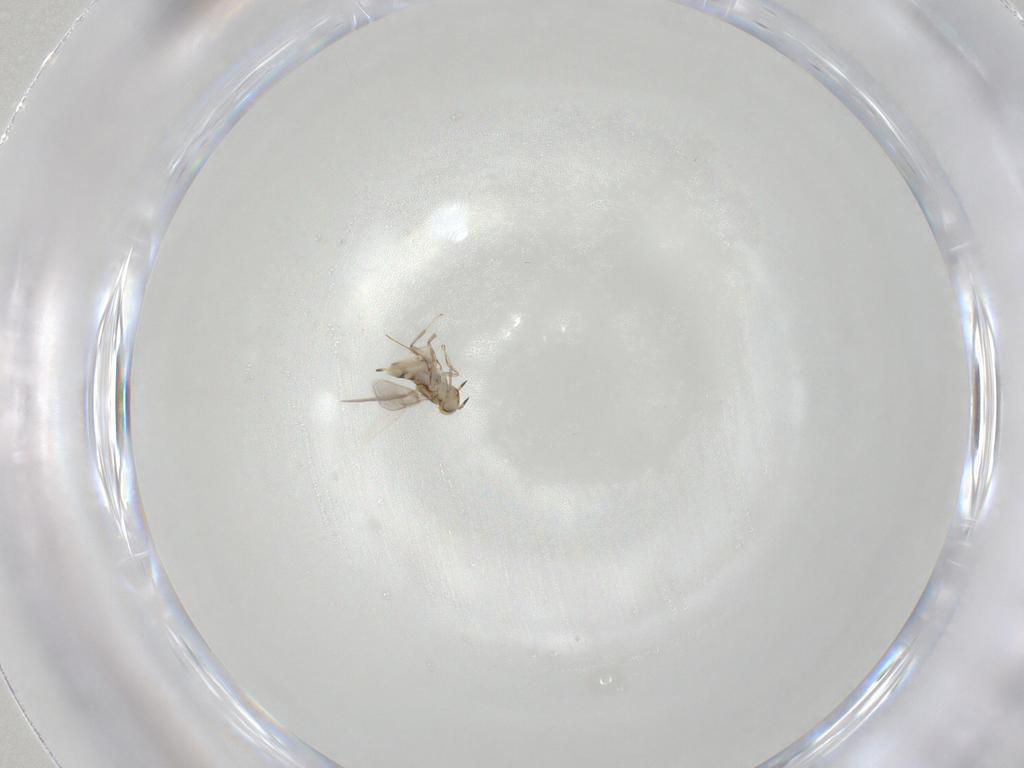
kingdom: Animalia
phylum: Arthropoda
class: Insecta
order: Hymenoptera
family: Aphelinidae
